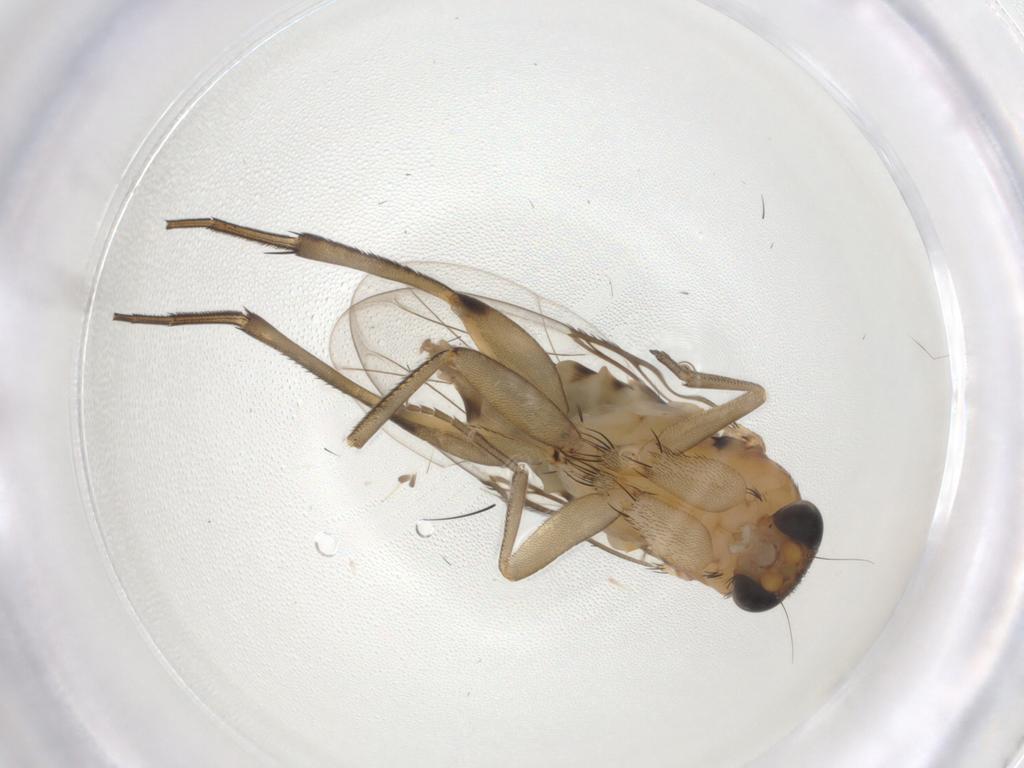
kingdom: Animalia
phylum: Arthropoda
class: Insecta
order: Diptera
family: Phoridae
